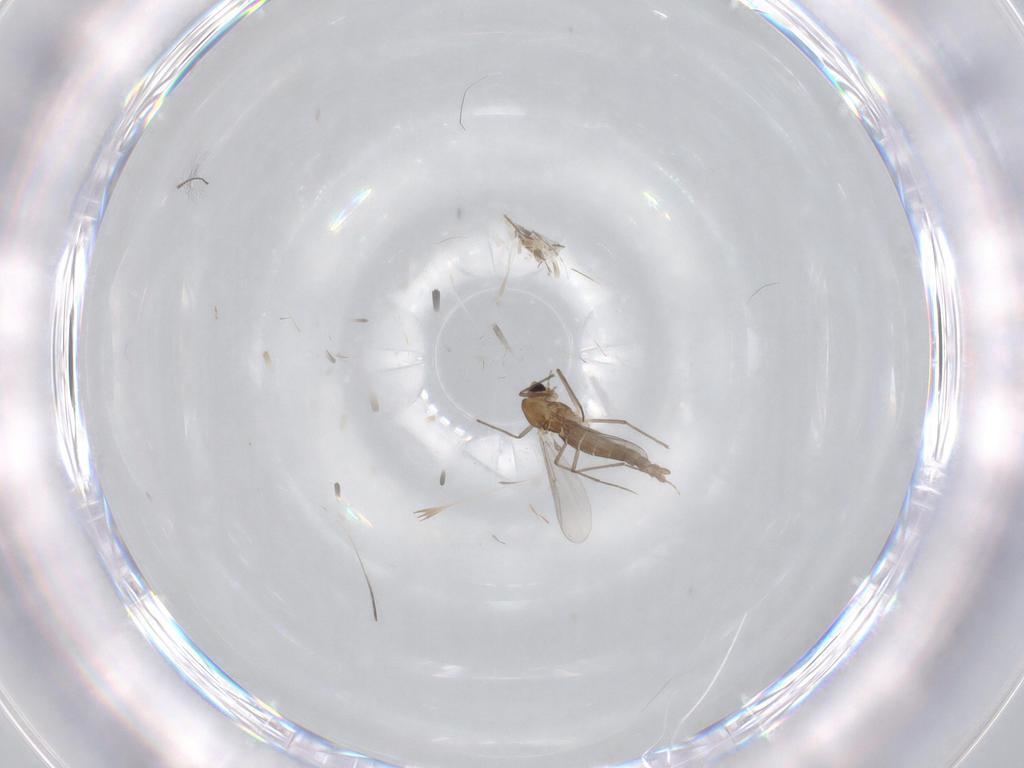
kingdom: Animalia
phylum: Arthropoda
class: Insecta
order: Diptera
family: Chironomidae
